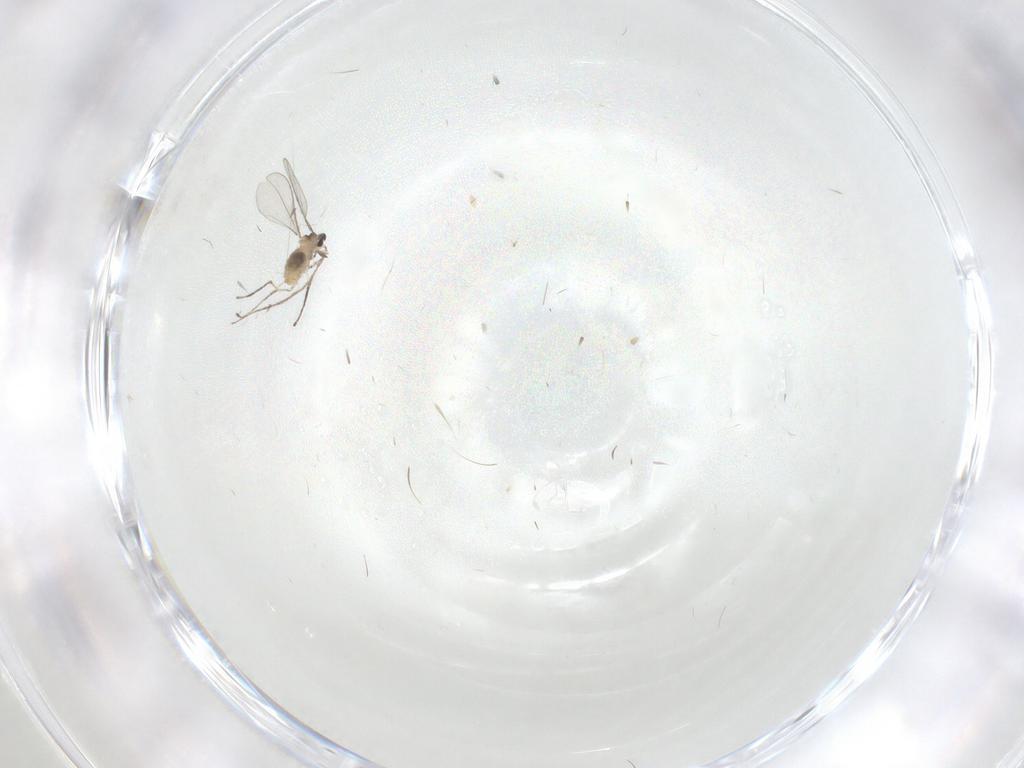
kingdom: Animalia
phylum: Arthropoda
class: Insecta
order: Diptera
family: Cecidomyiidae
